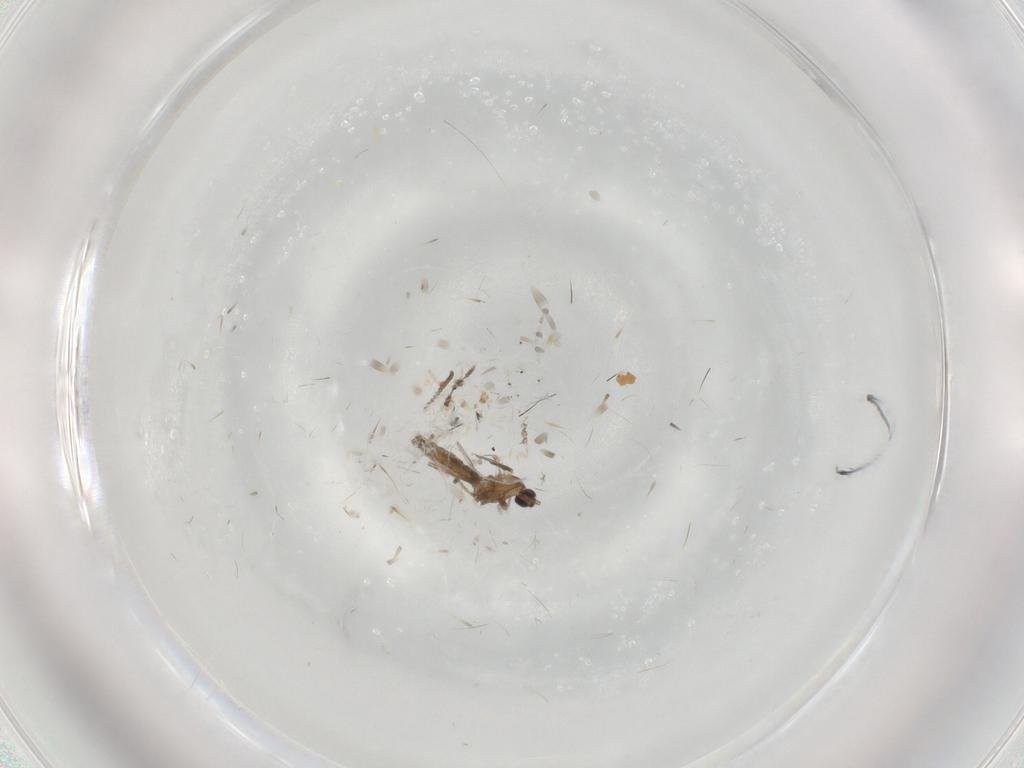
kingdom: Animalia
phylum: Arthropoda
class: Insecta
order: Diptera
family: Cecidomyiidae
